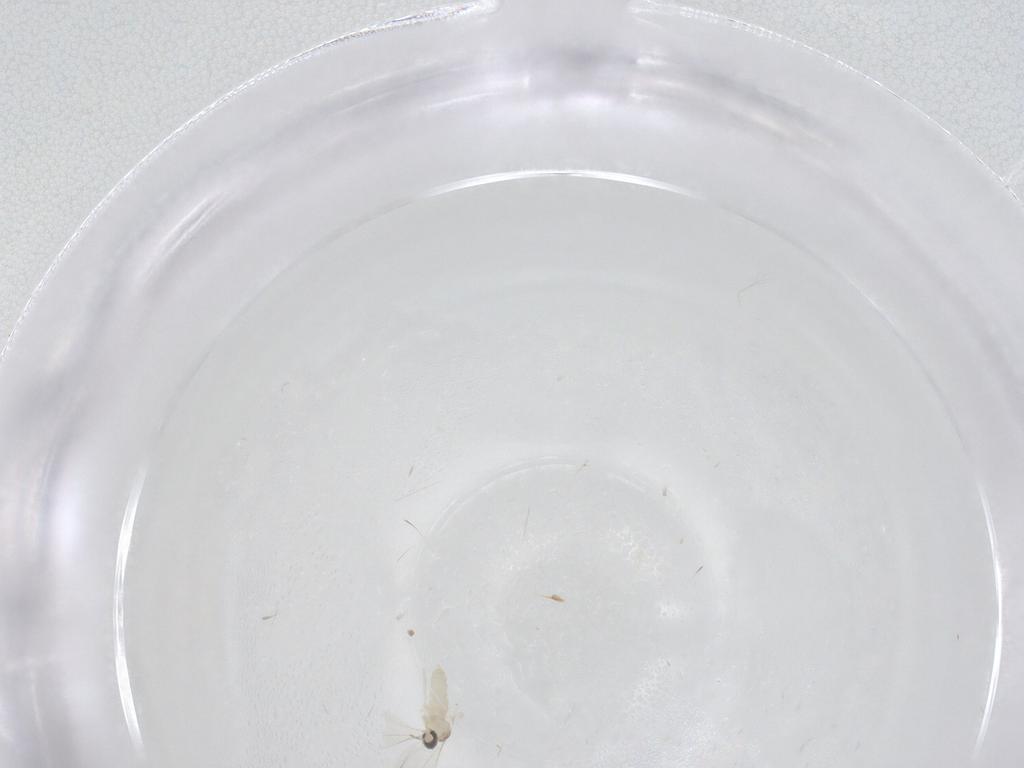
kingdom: Animalia
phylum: Arthropoda
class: Insecta
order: Diptera
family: Cecidomyiidae
